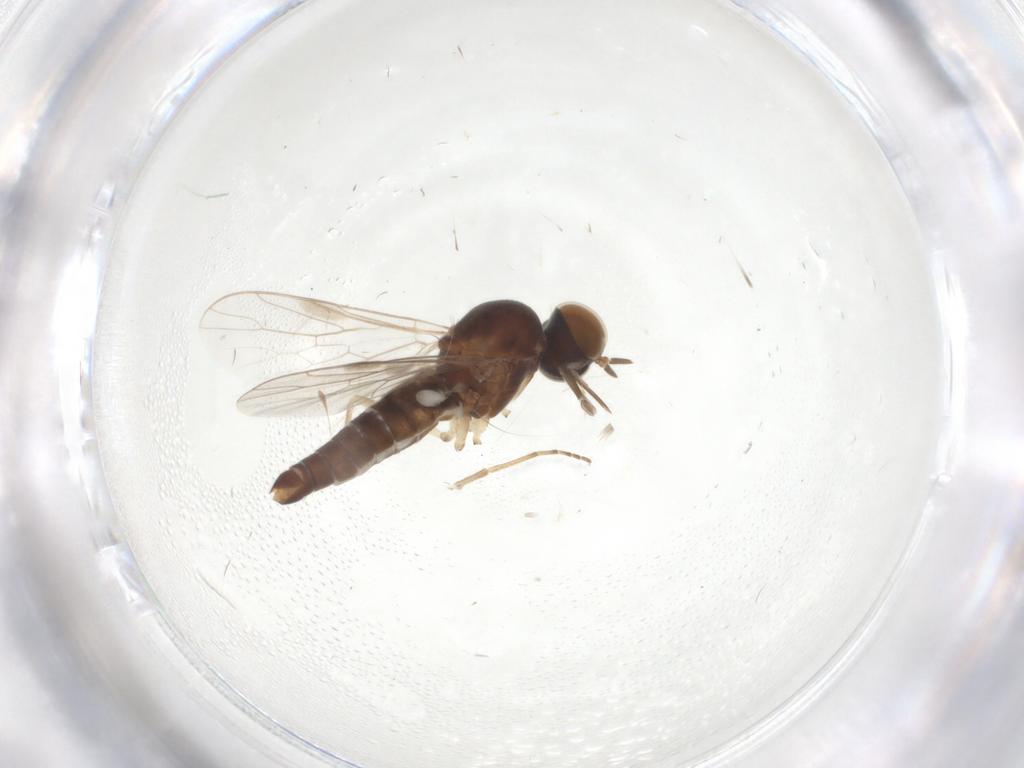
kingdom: Animalia
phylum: Arthropoda
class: Insecta
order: Diptera
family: Scenopinidae
